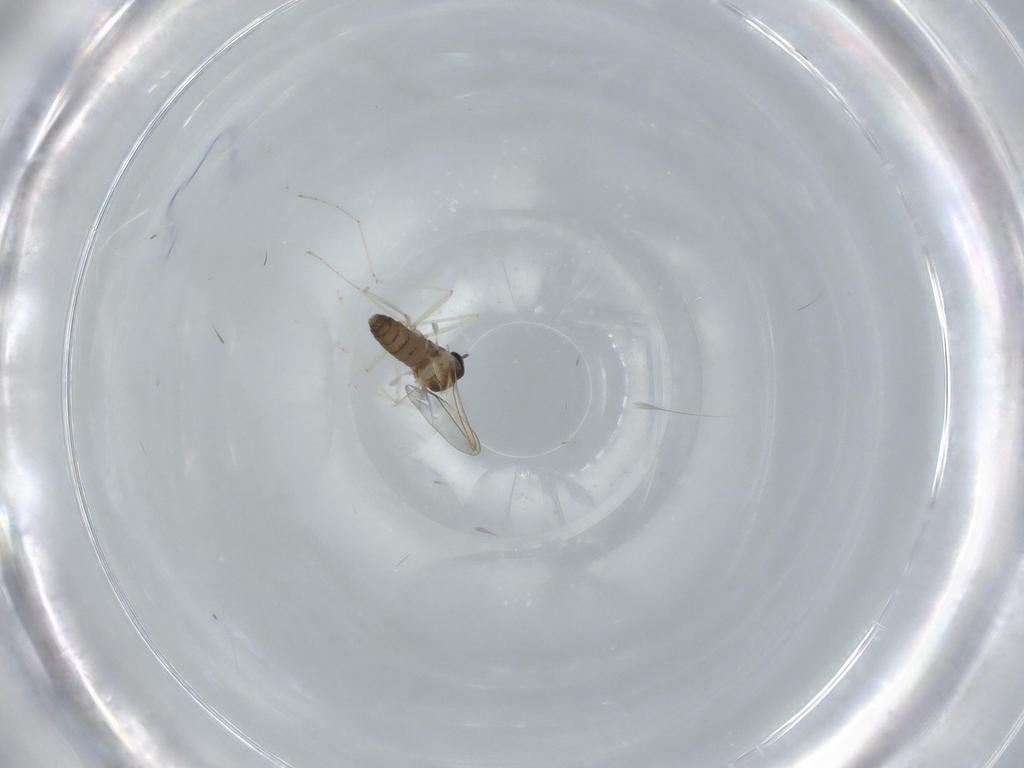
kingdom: Animalia
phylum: Arthropoda
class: Insecta
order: Diptera
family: Cecidomyiidae
